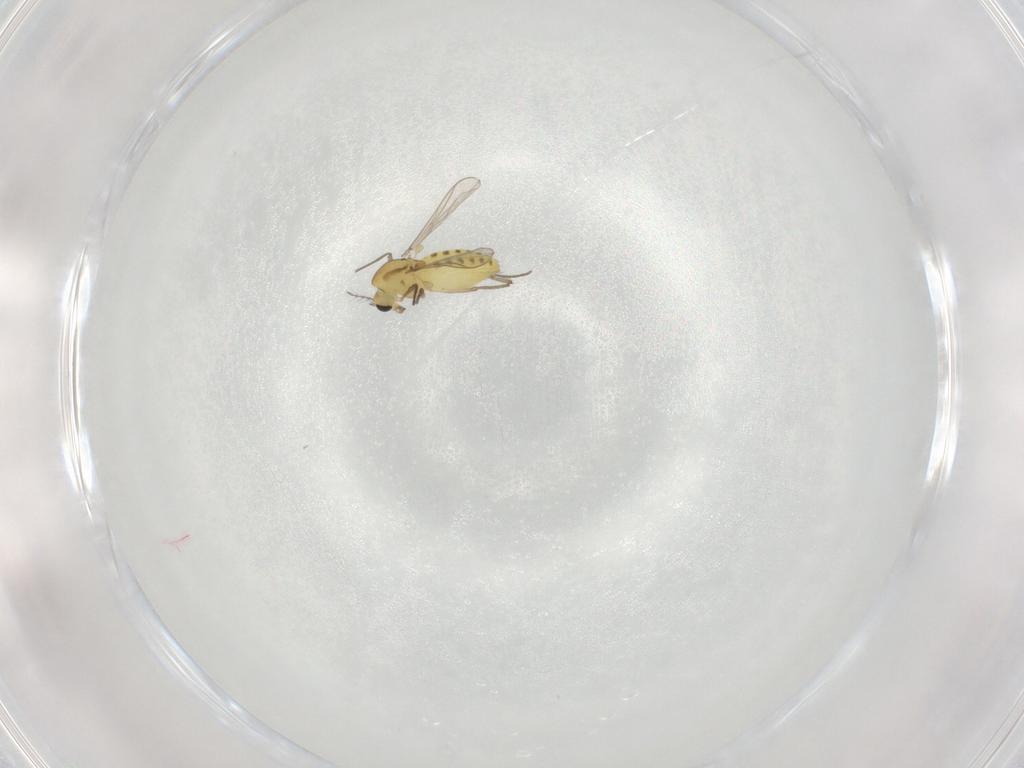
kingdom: Animalia
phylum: Arthropoda
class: Insecta
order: Diptera
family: Chironomidae
